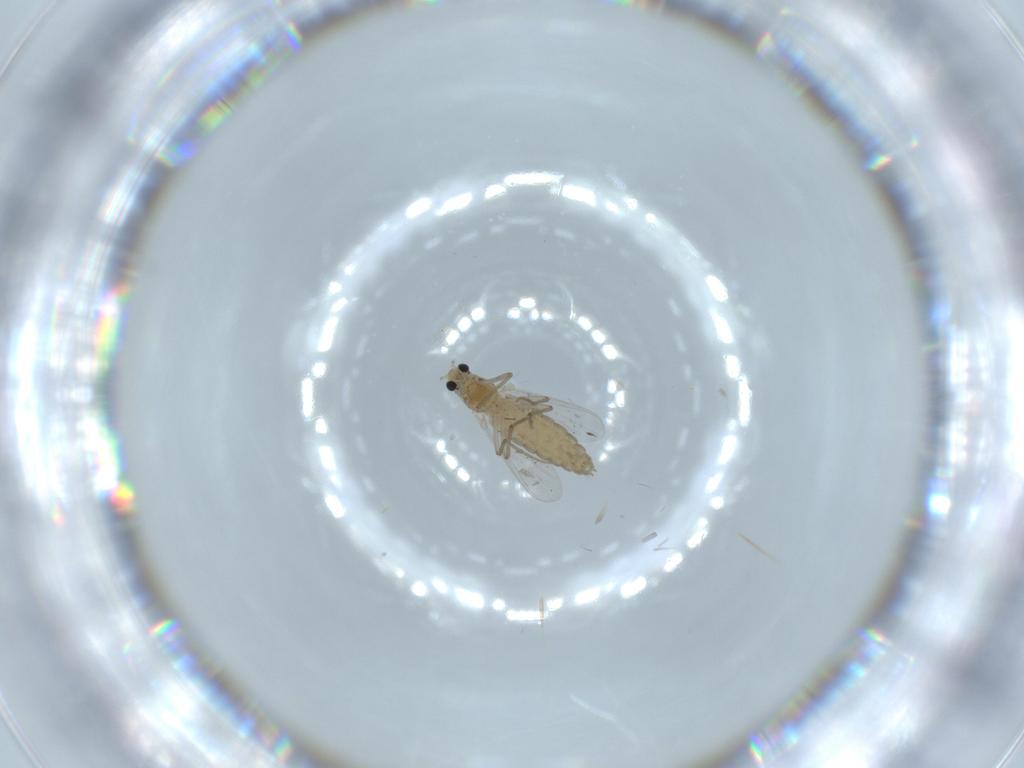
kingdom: Animalia
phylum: Arthropoda
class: Insecta
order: Diptera
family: Chironomidae
